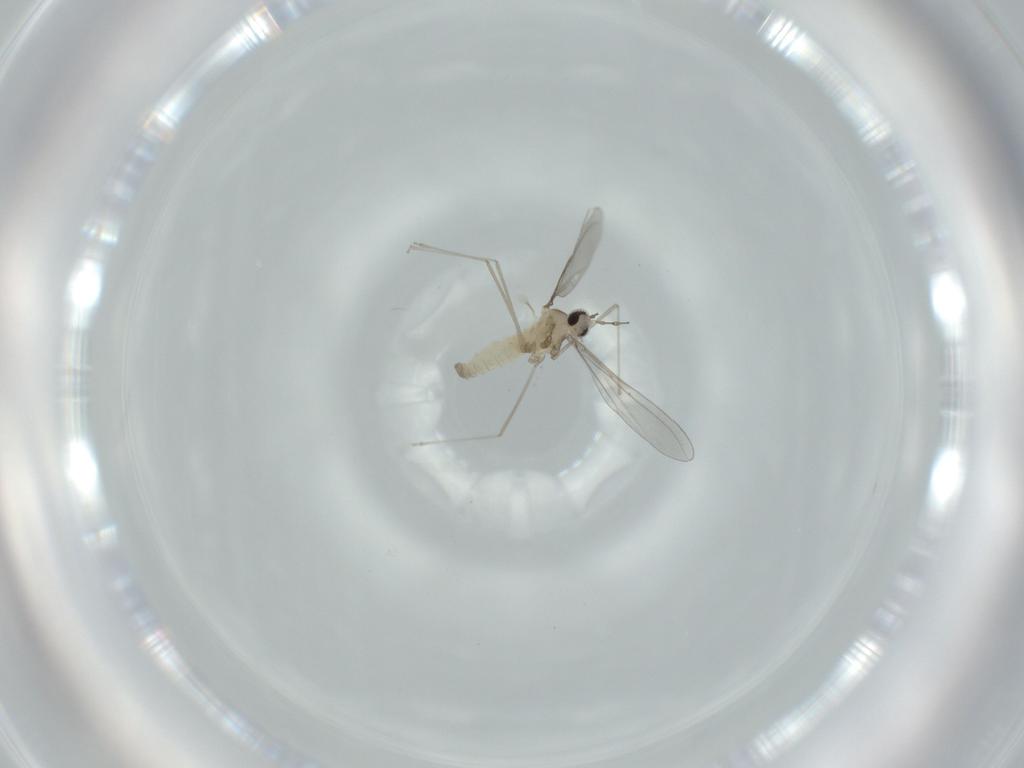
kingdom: Animalia
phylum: Arthropoda
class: Insecta
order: Diptera
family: Cecidomyiidae
